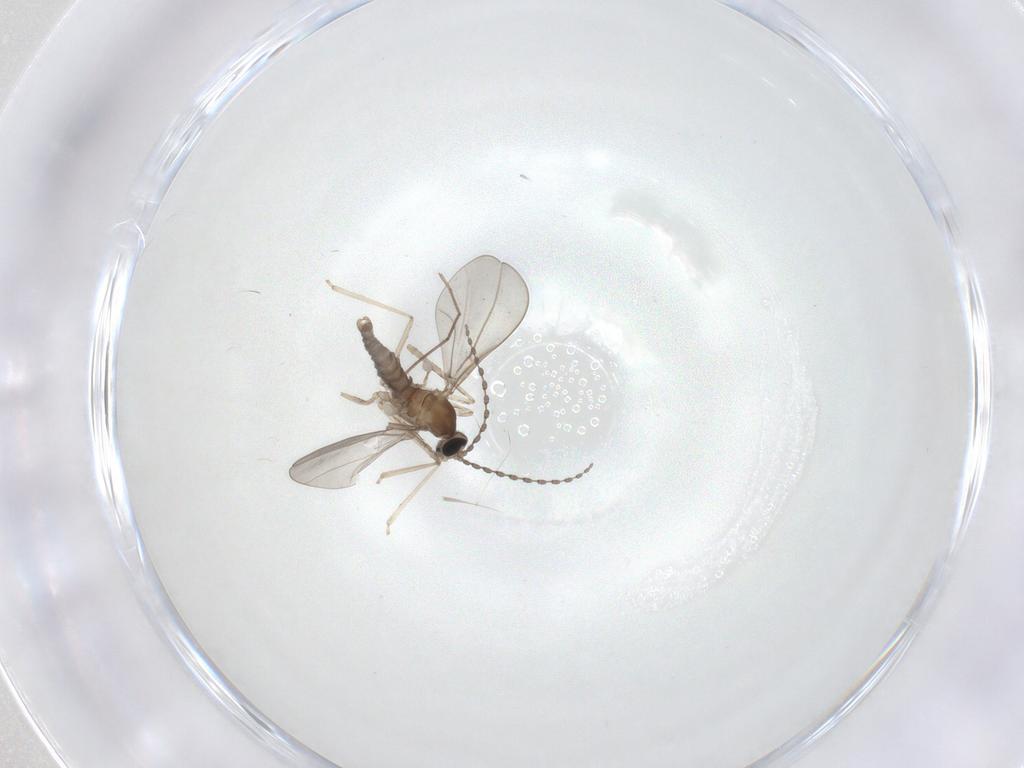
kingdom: Animalia
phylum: Arthropoda
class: Insecta
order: Diptera
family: Cecidomyiidae
